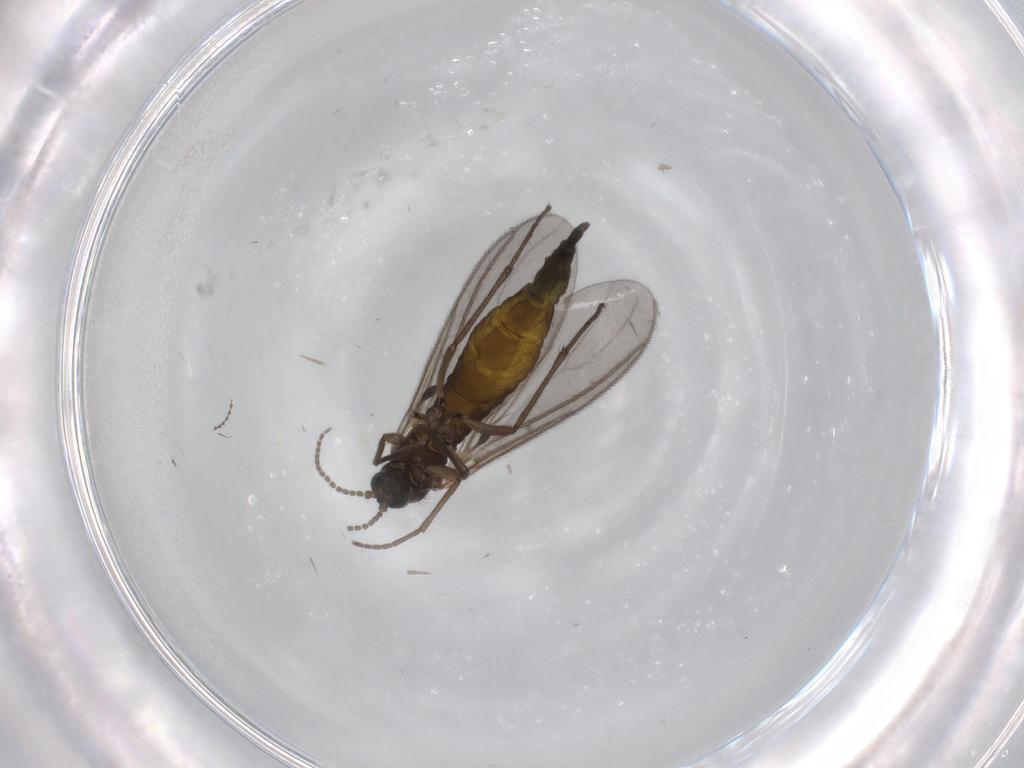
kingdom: Animalia
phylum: Arthropoda
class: Insecta
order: Diptera
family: Sciaridae
